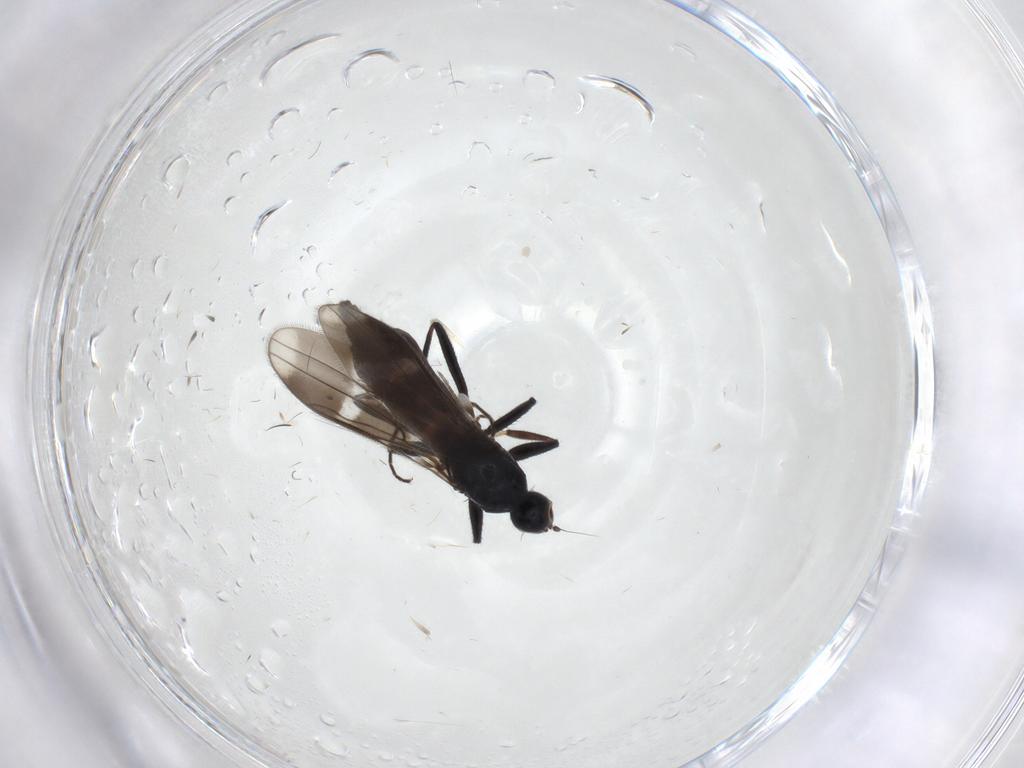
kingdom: Animalia
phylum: Arthropoda
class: Insecta
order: Diptera
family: Hybotidae
